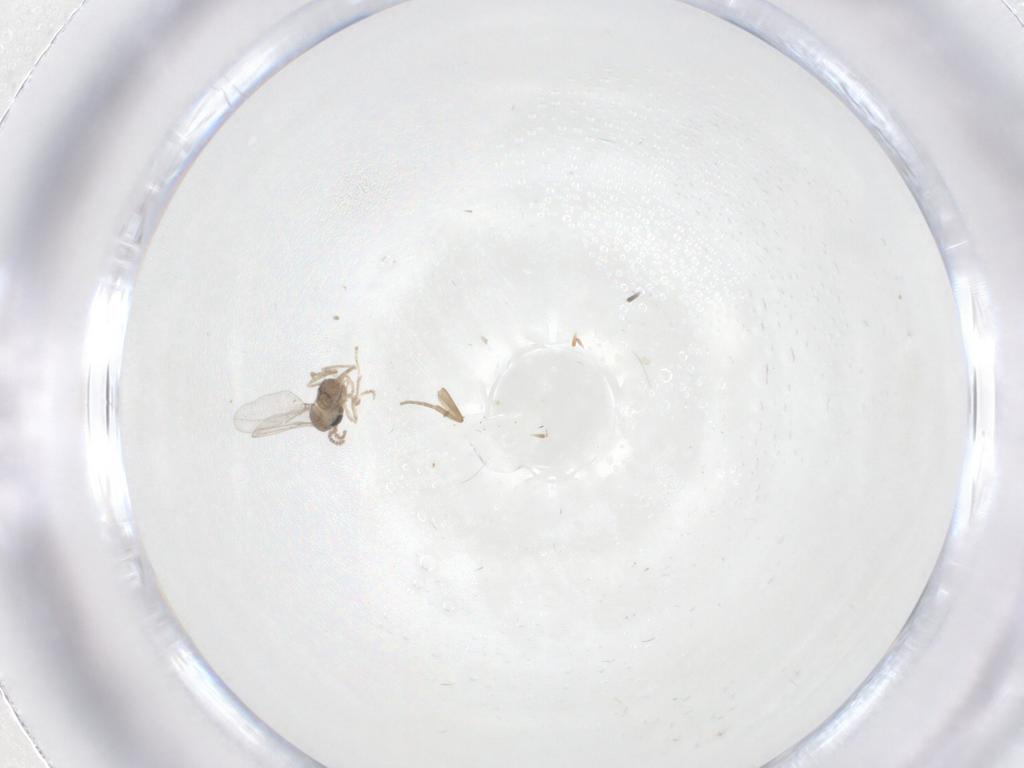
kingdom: Animalia
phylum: Arthropoda
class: Insecta
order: Diptera
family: Cecidomyiidae
